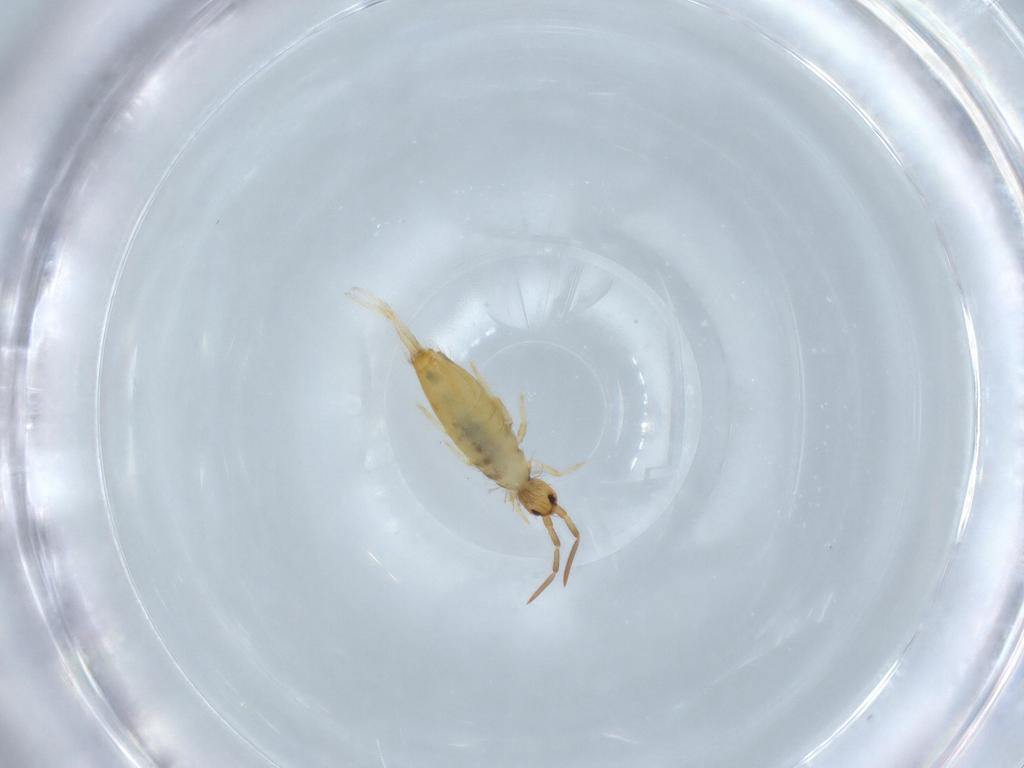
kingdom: Animalia
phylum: Arthropoda
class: Collembola
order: Entomobryomorpha
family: Entomobryidae
